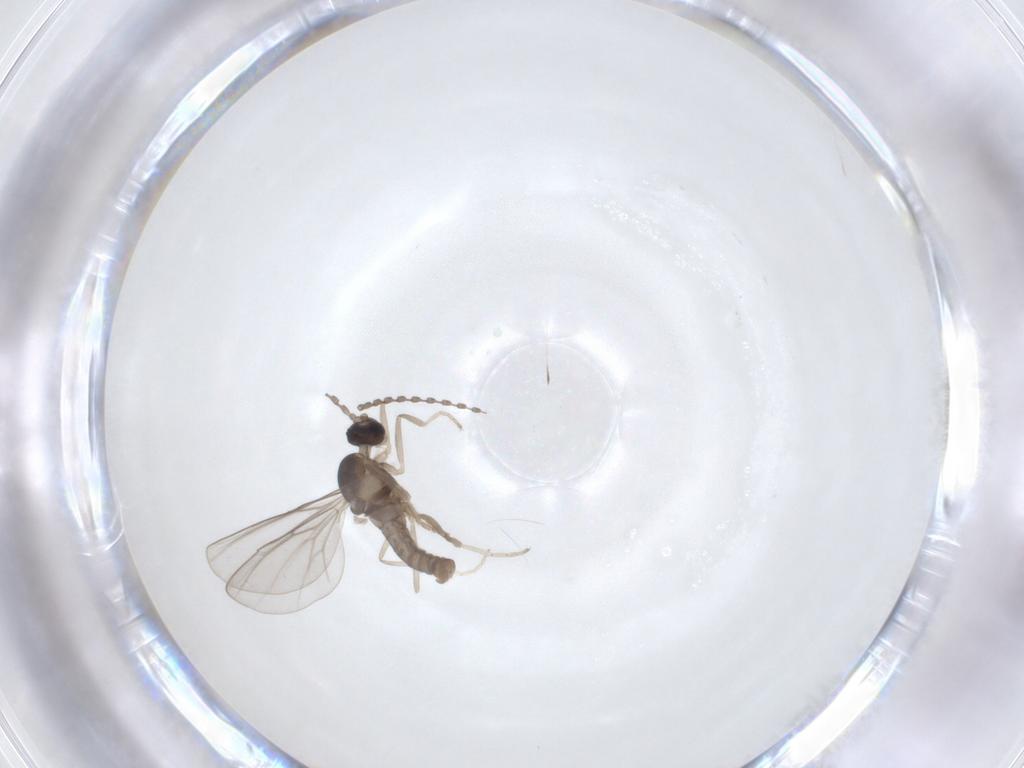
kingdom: Animalia
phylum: Arthropoda
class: Insecta
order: Diptera
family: Cecidomyiidae
